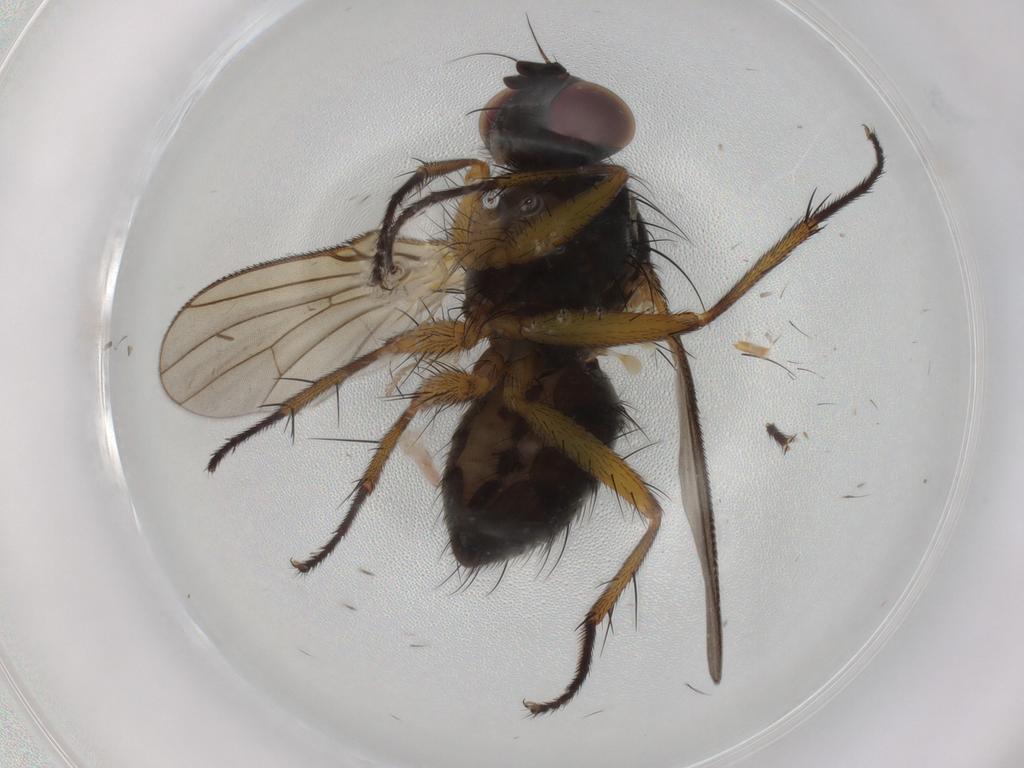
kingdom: Animalia
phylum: Arthropoda
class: Insecta
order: Diptera
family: Muscidae
